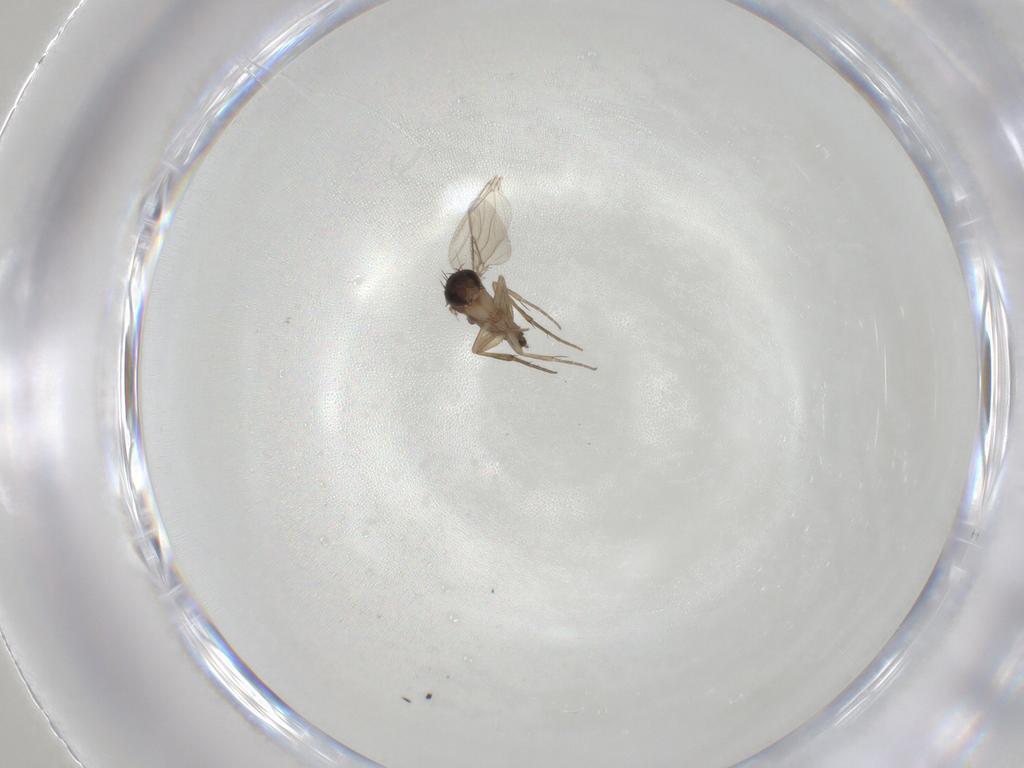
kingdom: Animalia
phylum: Arthropoda
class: Insecta
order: Diptera
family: Phoridae
